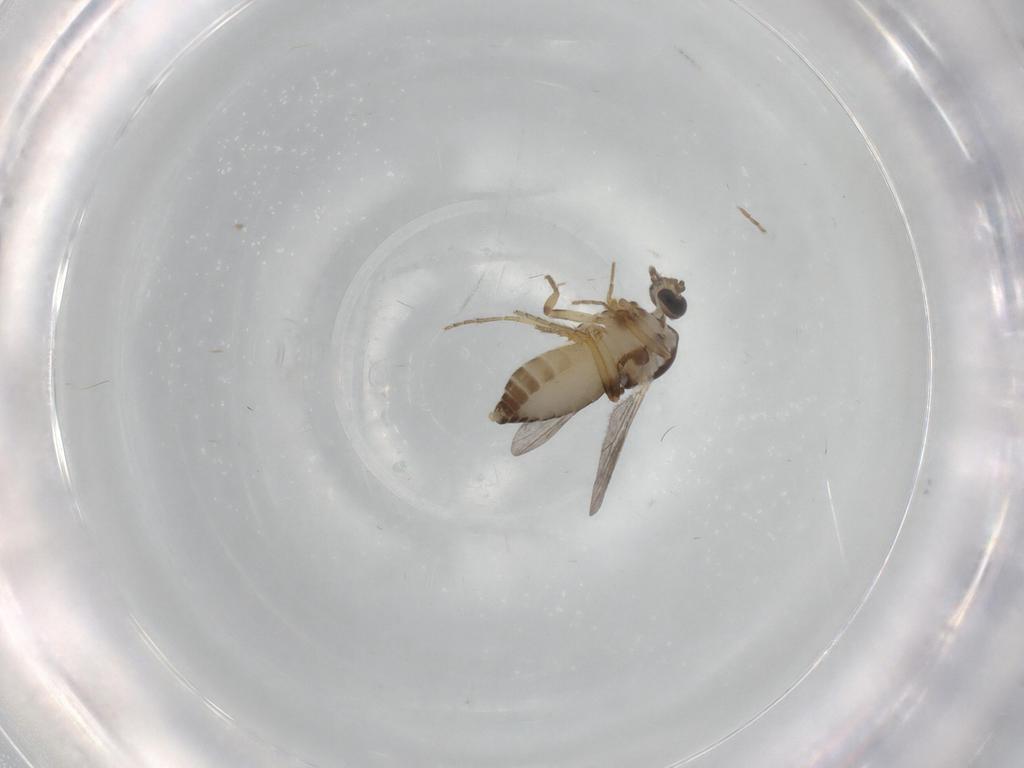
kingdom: Animalia
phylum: Arthropoda
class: Insecta
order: Diptera
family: Ceratopogonidae
